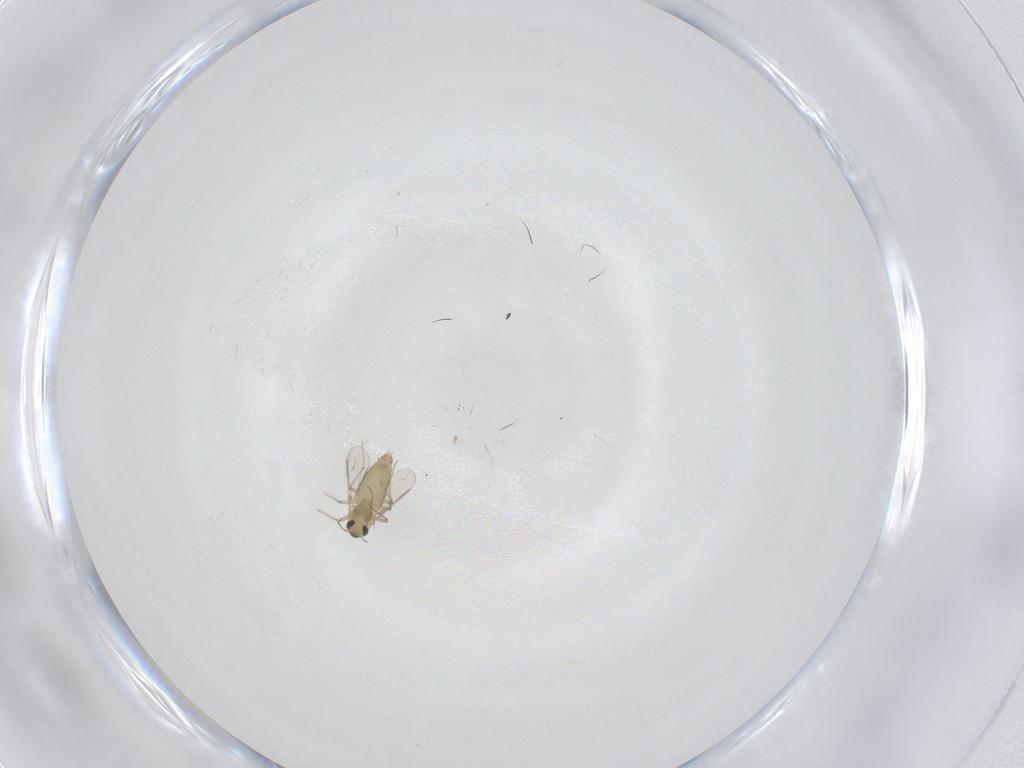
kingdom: Animalia
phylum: Arthropoda
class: Insecta
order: Diptera
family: Chironomidae
